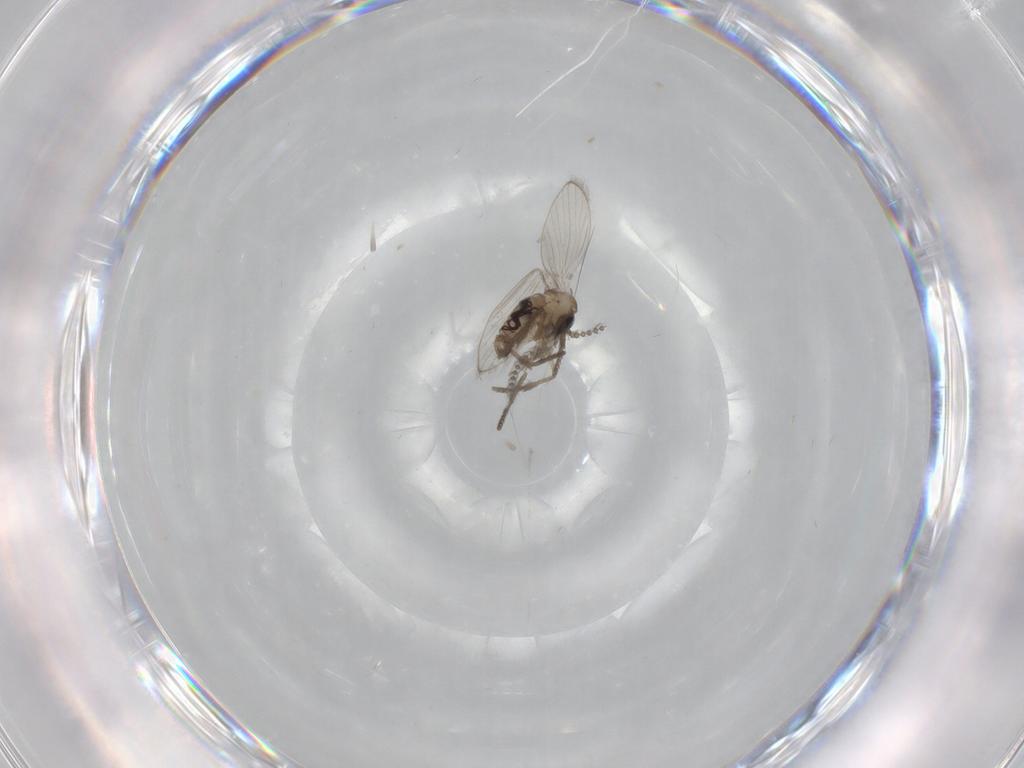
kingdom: Animalia
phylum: Arthropoda
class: Insecta
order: Diptera
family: Psychodidae
